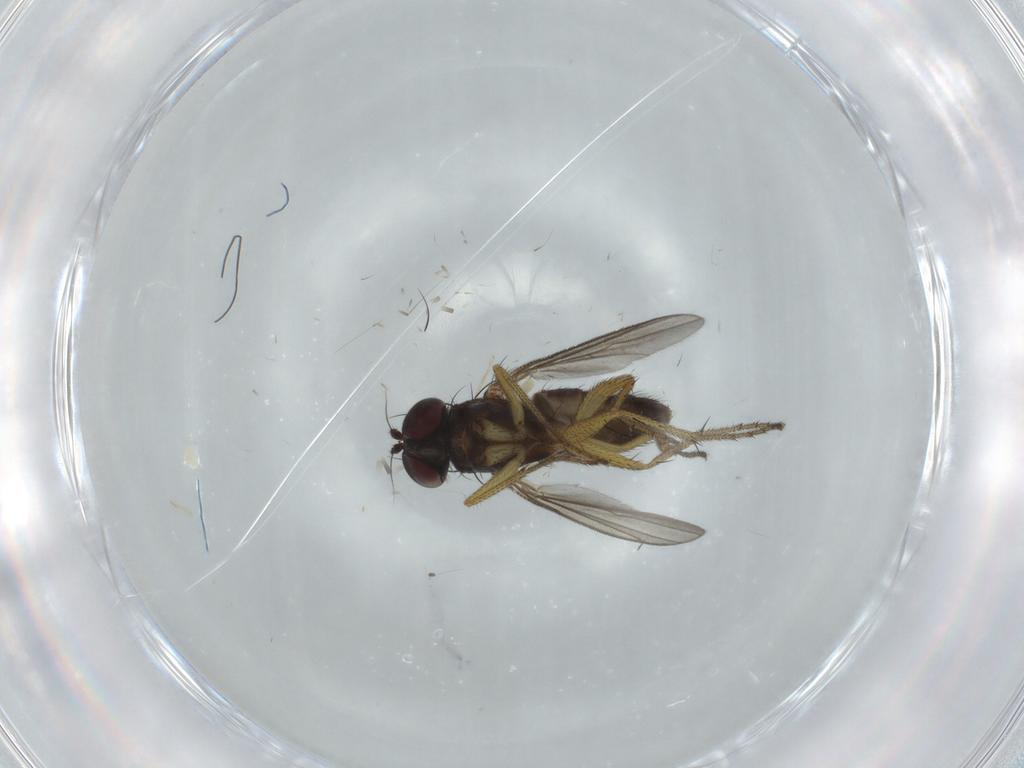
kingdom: Animalia
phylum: Arthropoda
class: Insecta
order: Diptera
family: Dolichopodidae
